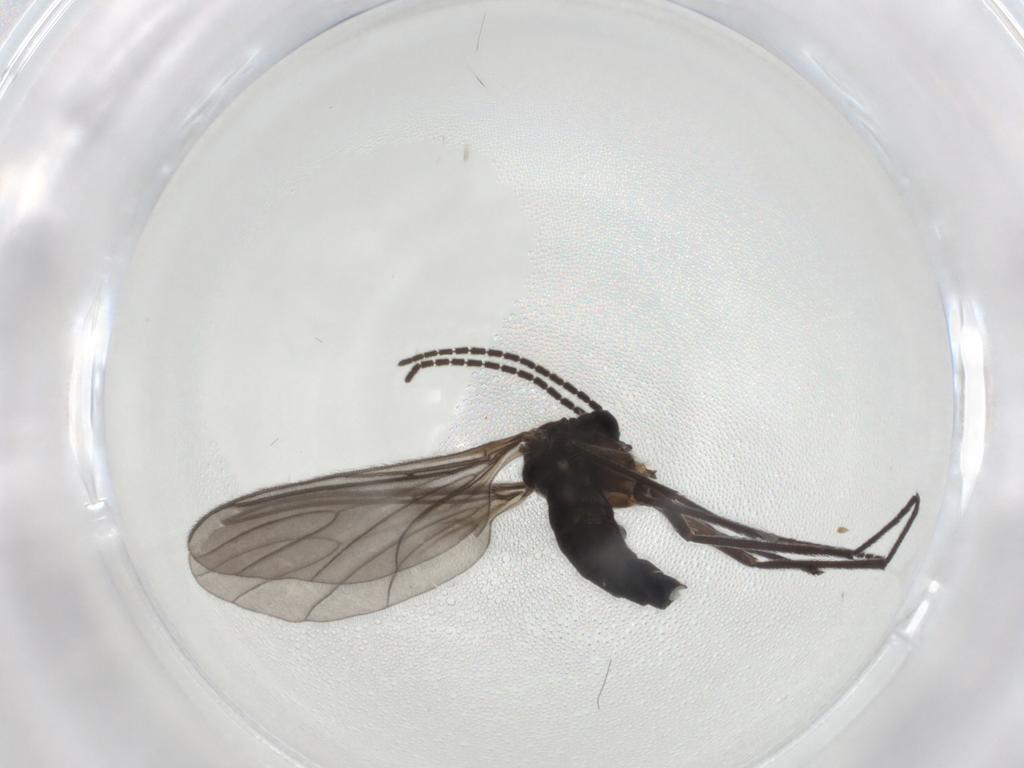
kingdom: Animalia
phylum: Arthropoda
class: Insecta
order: Diptera
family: Sciaridae
